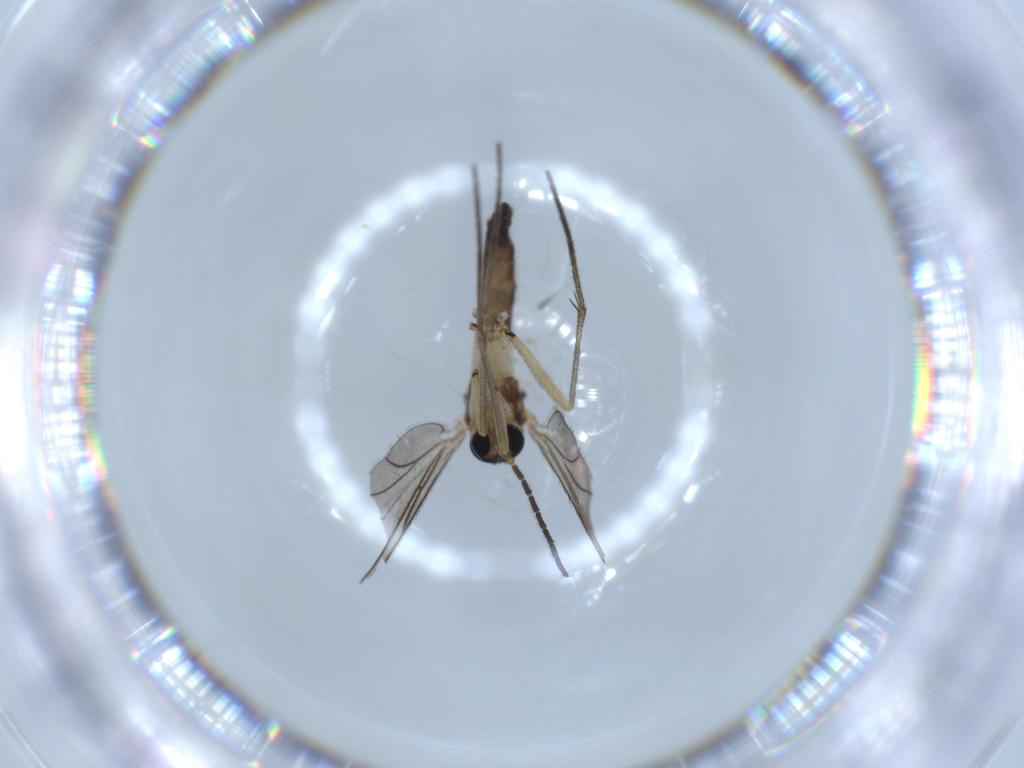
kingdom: Animalia
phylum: Arthropoda
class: Insecta
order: Diptera
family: Sciaridae
